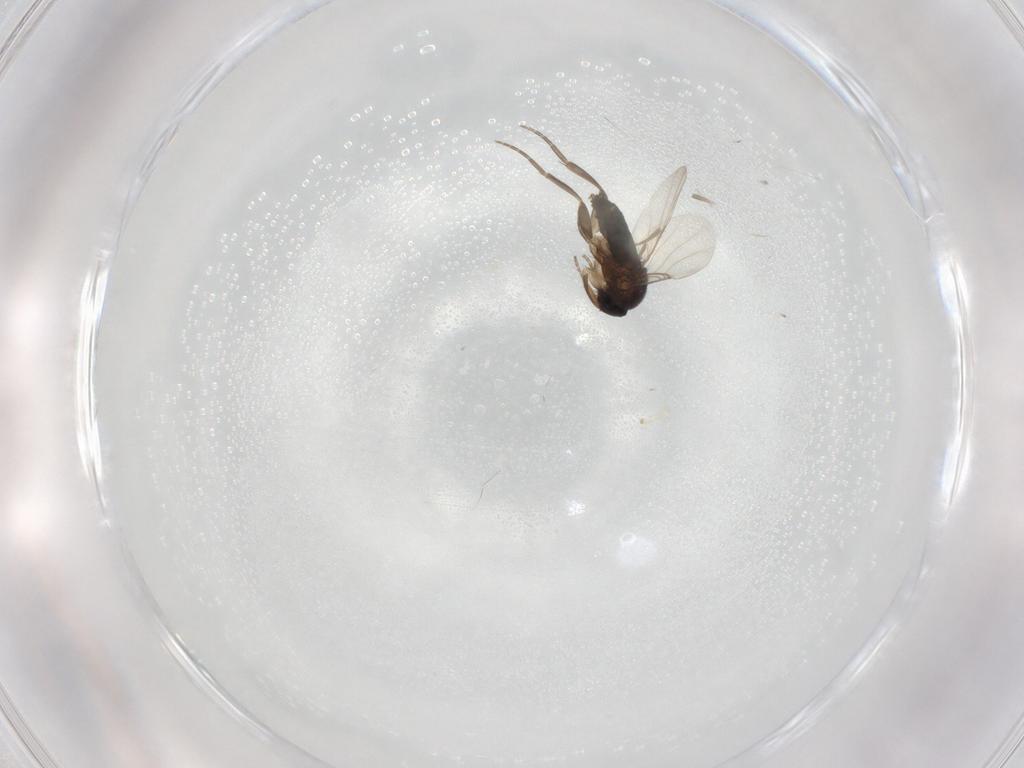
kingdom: Animalia
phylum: Arthropoda
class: Insecta
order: Diptera
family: Phoridae
